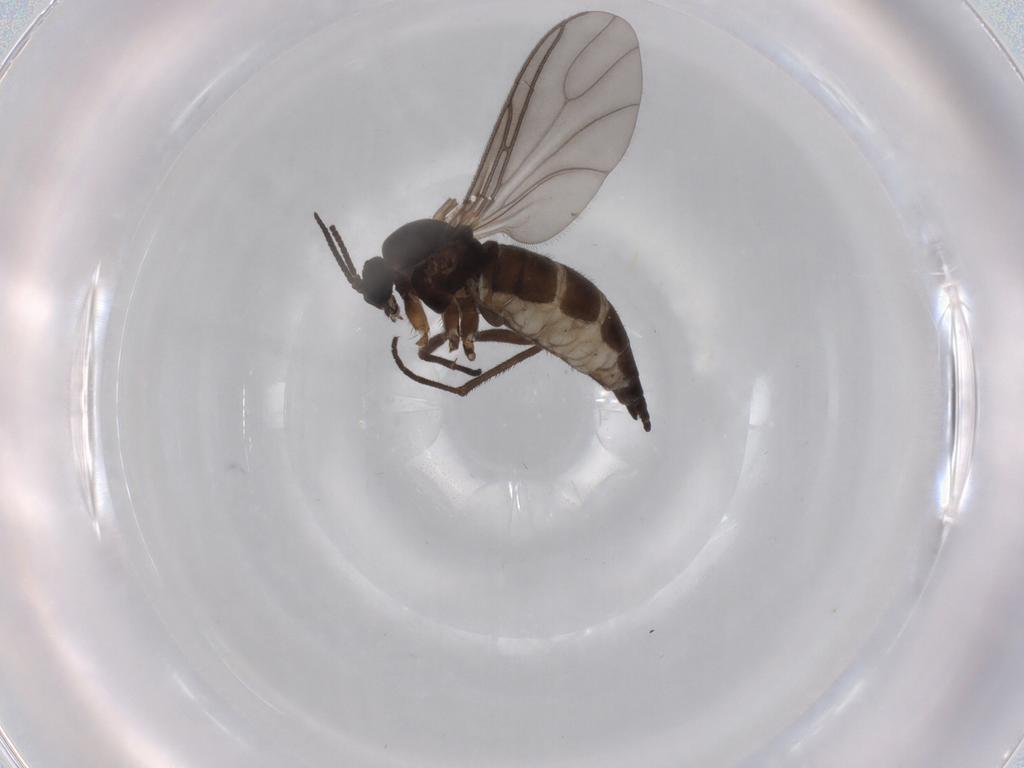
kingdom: Animalia
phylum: Arthropoda
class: Insecta
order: Diptera
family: Sciaridae
